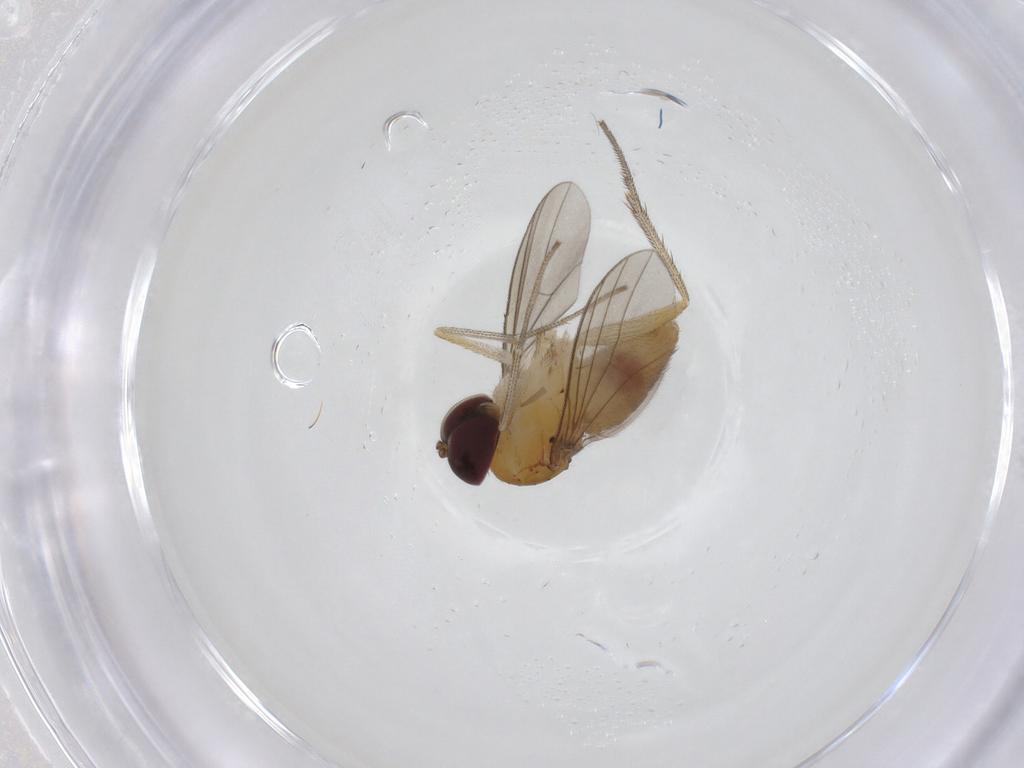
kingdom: Animalia
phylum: Arthropoda
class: Insecta
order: Diptera
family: Dolichopodidae
